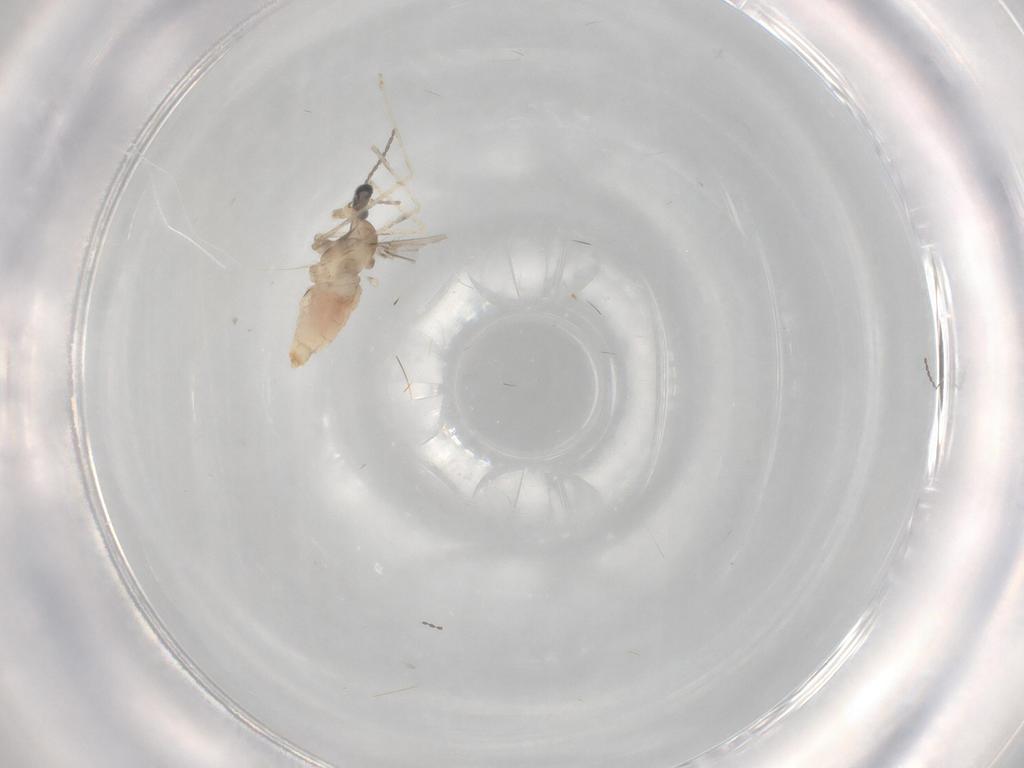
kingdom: Animalia
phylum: Arthropoda
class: Insecta
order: Diptera
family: Cecidomyiidae
